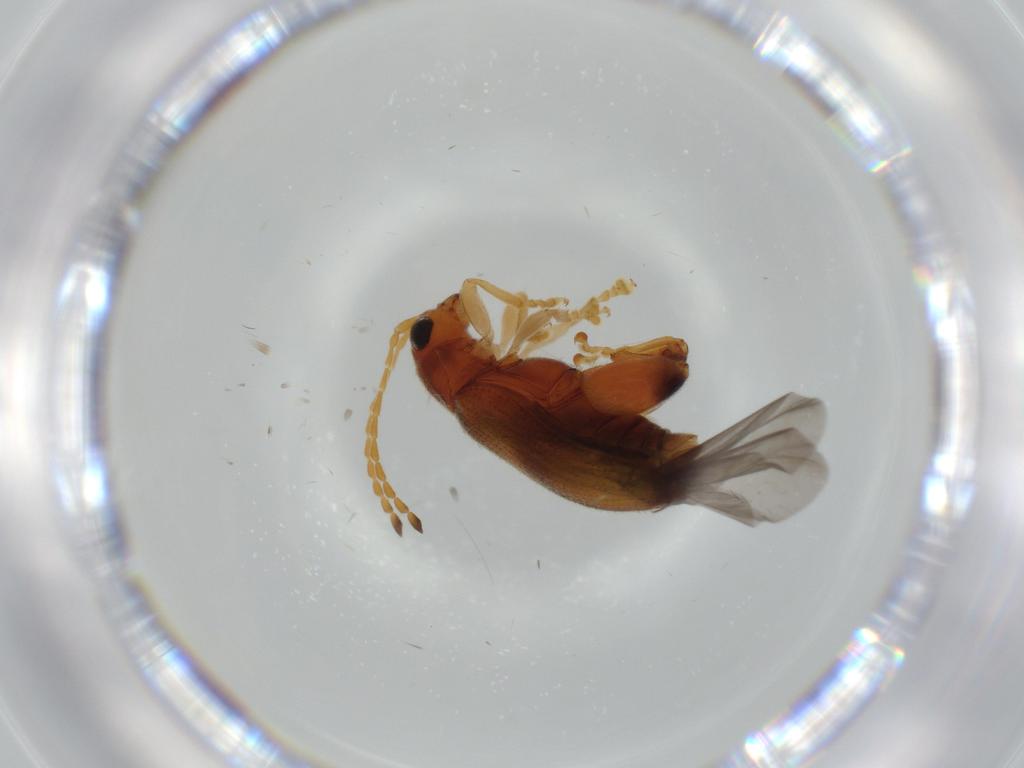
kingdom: Animalia
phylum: Arthropoda
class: Insecta
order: Coleoptera
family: Chrysomelidae
